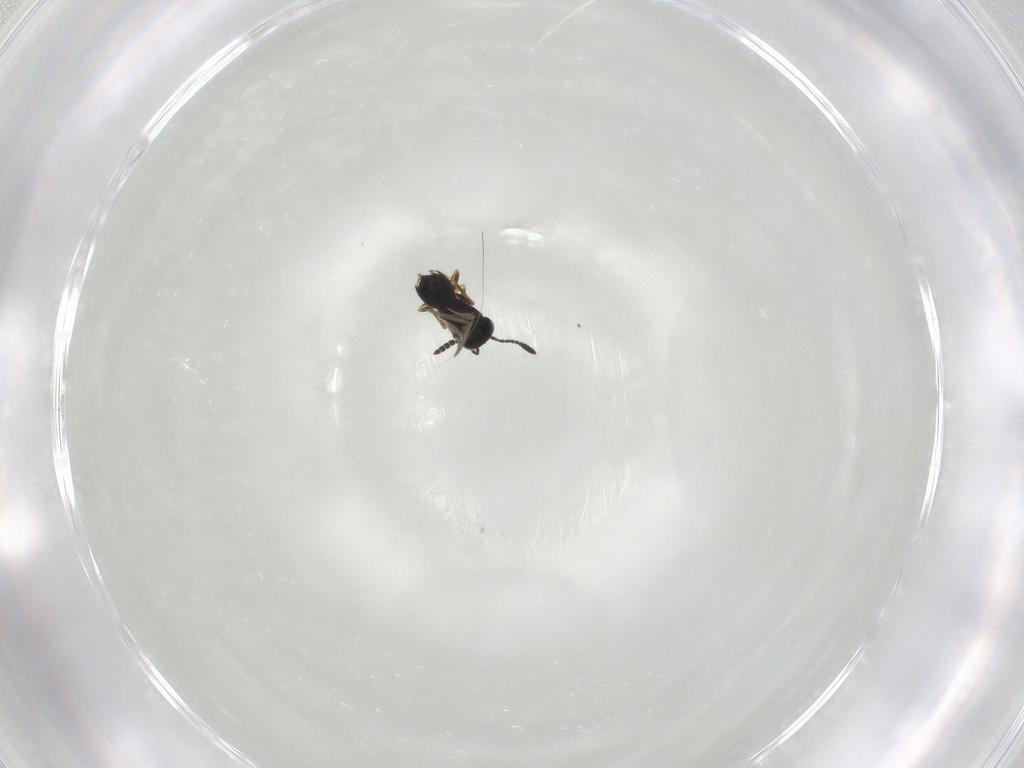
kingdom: Animalia
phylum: Arthropoda
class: Insecta
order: Hymenoptera
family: Scelionidae
